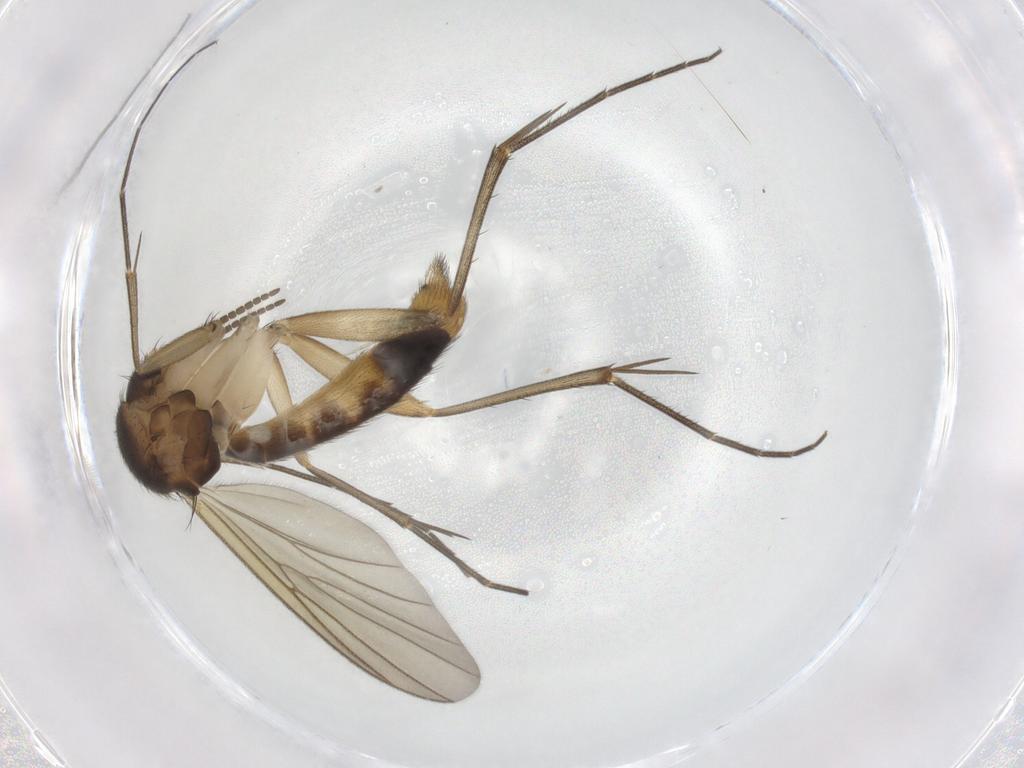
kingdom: Animalia
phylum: Arthropoda
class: Insecta
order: Diptera
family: Mycetophilidae
